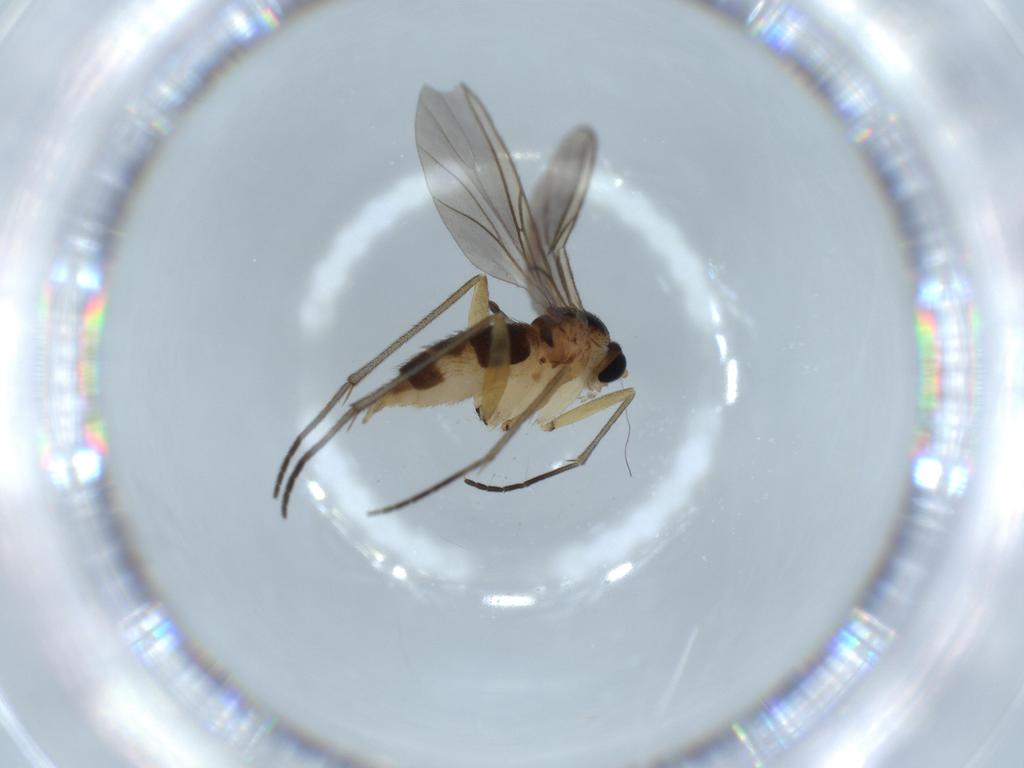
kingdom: Animalia
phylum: Arthropoda
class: Insecta
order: Diptera
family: Sciaridae
